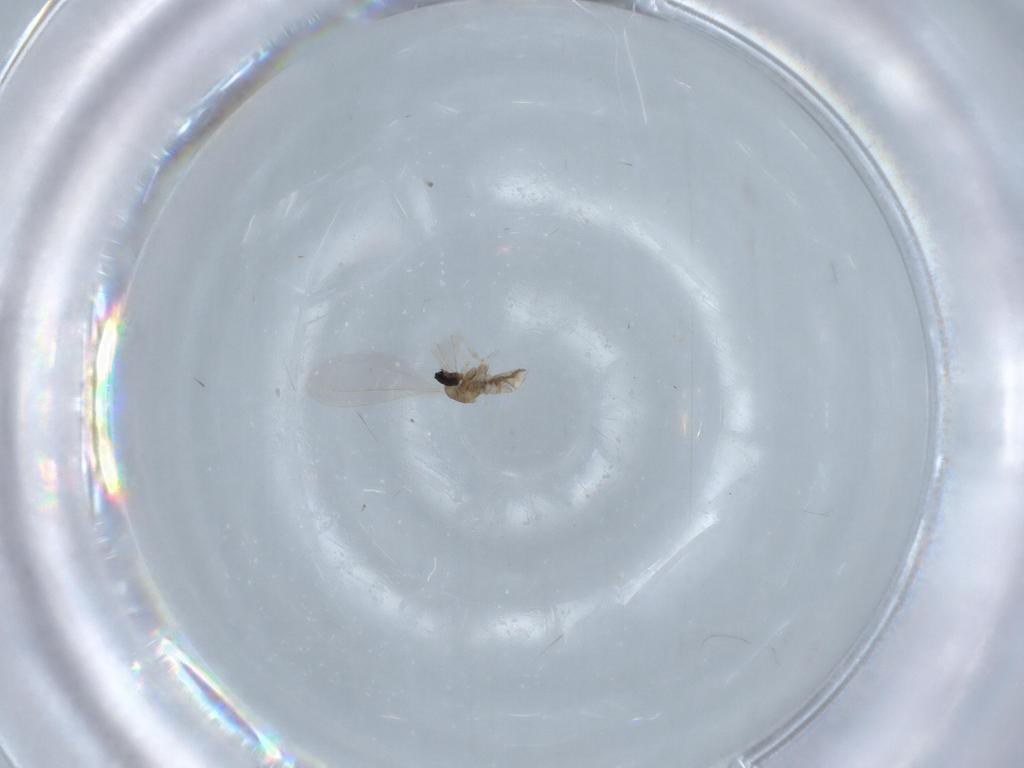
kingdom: Animalia
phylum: Arthropoda
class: Insecta
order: Diptera
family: Cecidomyiidae
